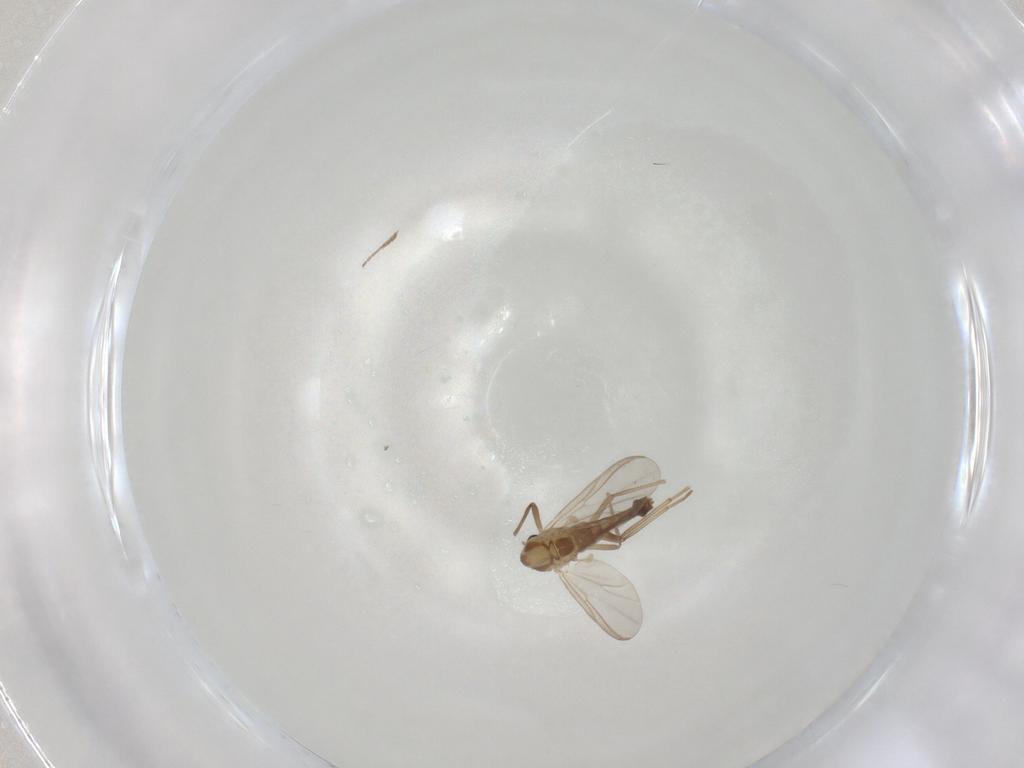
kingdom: Animalia
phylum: Arthropoda
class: Insecta
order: Diptera
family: Chironomidae
